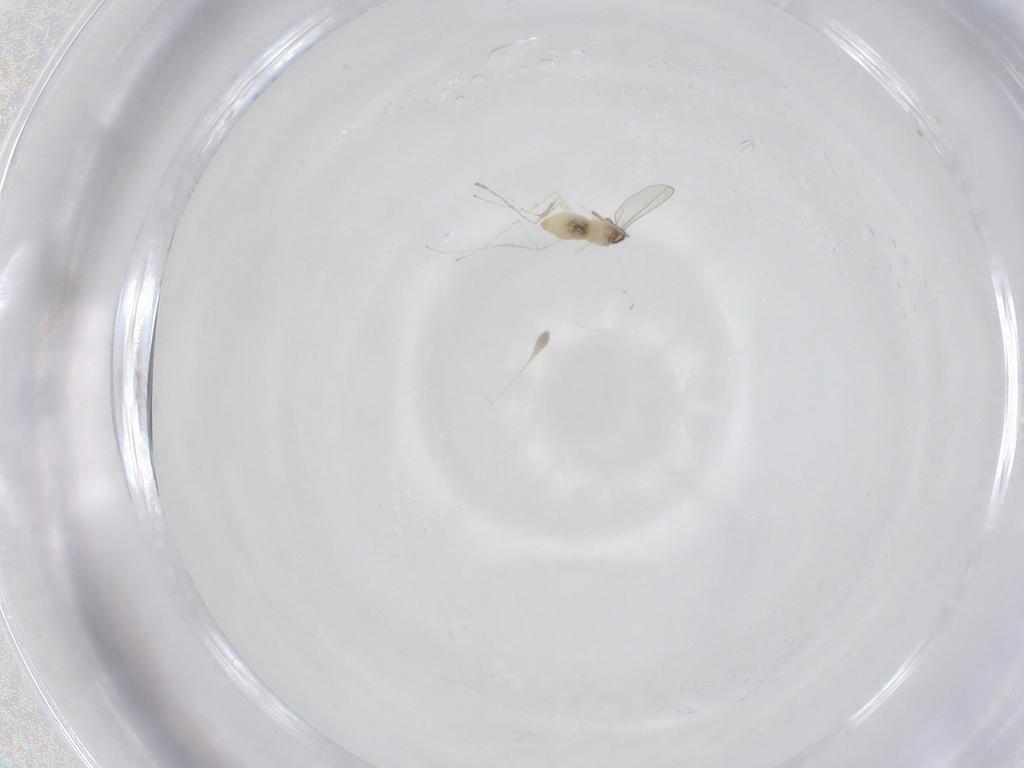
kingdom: Animalia
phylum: Arthropoda
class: Insecta
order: Diptera
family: Cecidomyiidae
